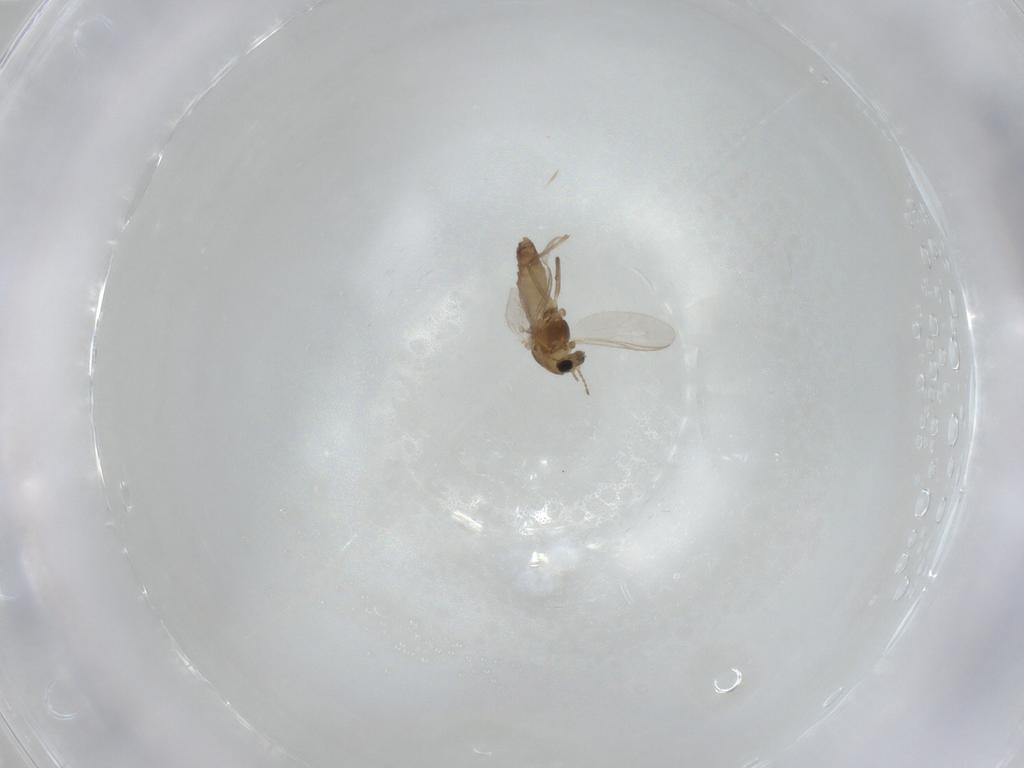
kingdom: Animalia
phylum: Arthropoda
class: Insecta
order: Diptera
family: Chironomidae
